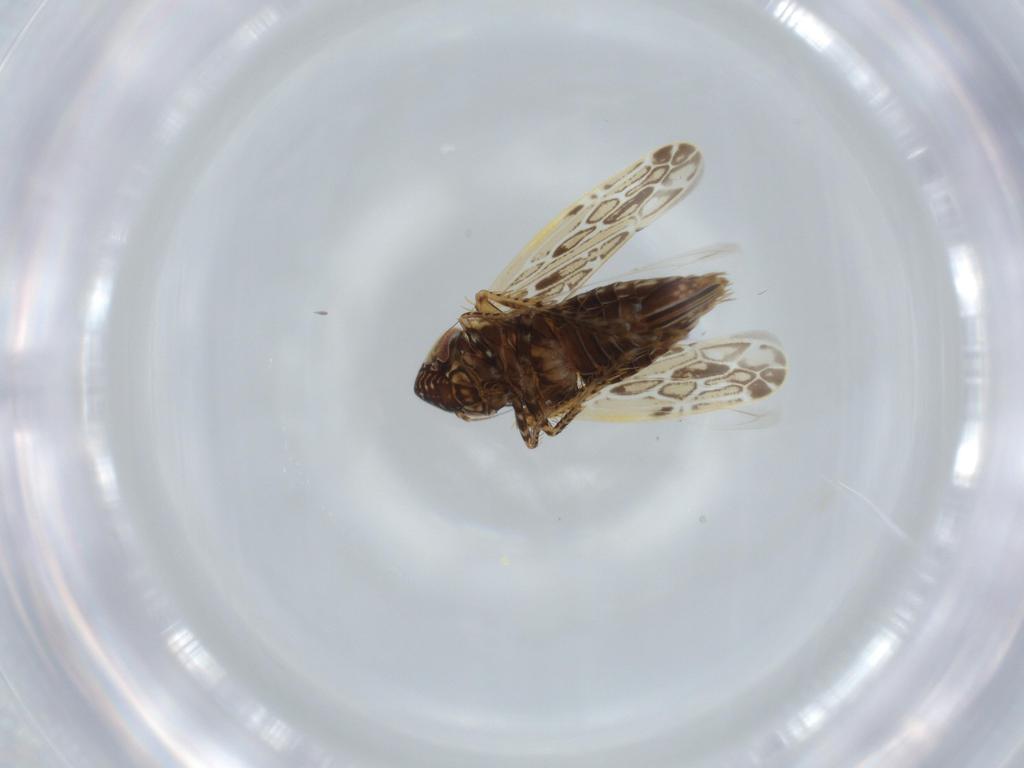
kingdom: Animalia
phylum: Arthropoda
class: Insecta
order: Hemiptera
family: Cicadellidae
